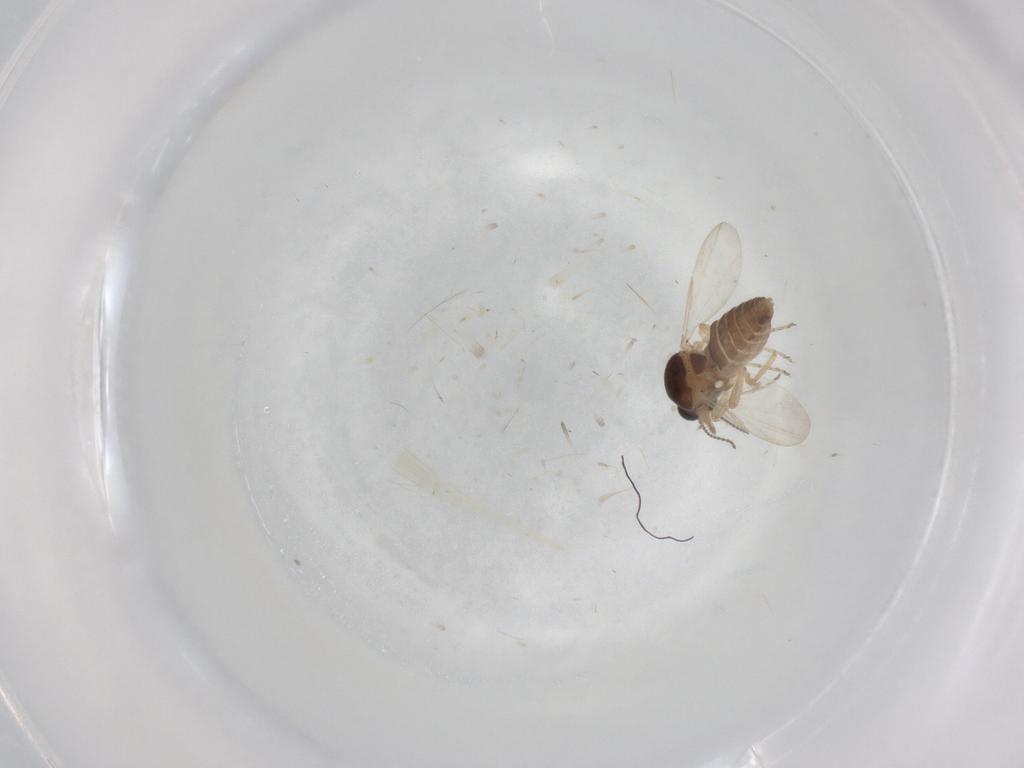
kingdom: Animalia
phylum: Arthropoda
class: Insecta
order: Diptera
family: Ceratopogonidae
